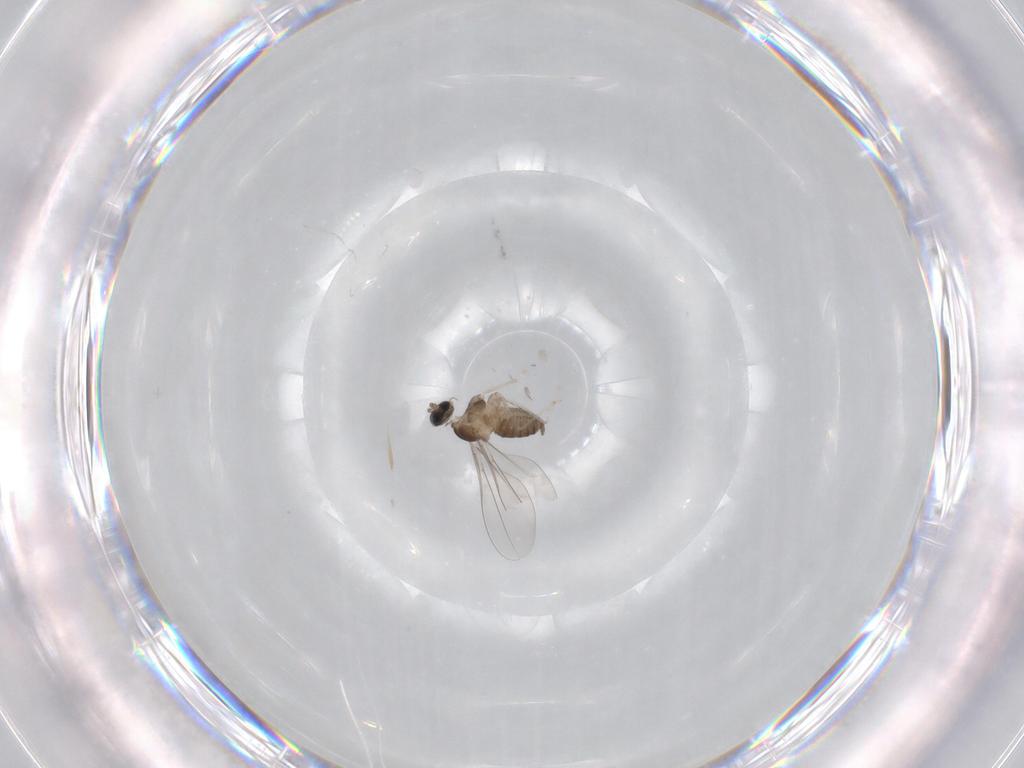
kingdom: Animalia
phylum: Arthropoda
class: Insecta
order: Diptera
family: Cecidomyiidae
